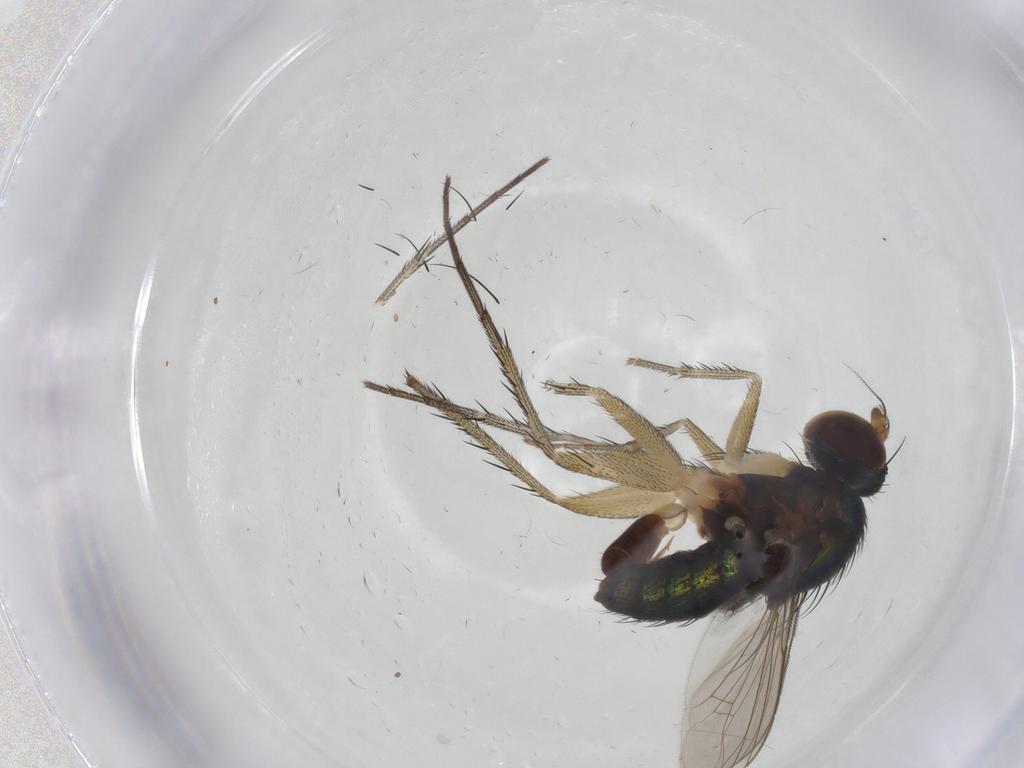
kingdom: Animalia
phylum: Arthropoda
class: Insecta
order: Diptera
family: Dolichopodidae
